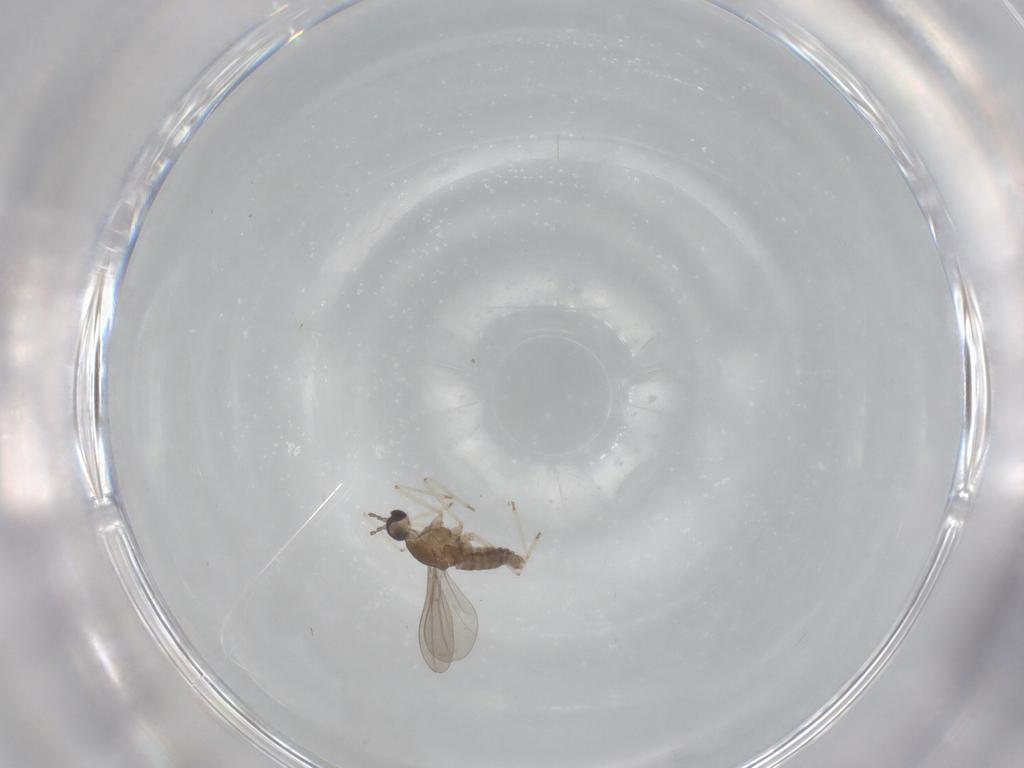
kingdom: Animalia
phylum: Arthropoda
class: Insecta
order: Diptera
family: Cecidomyiidae
